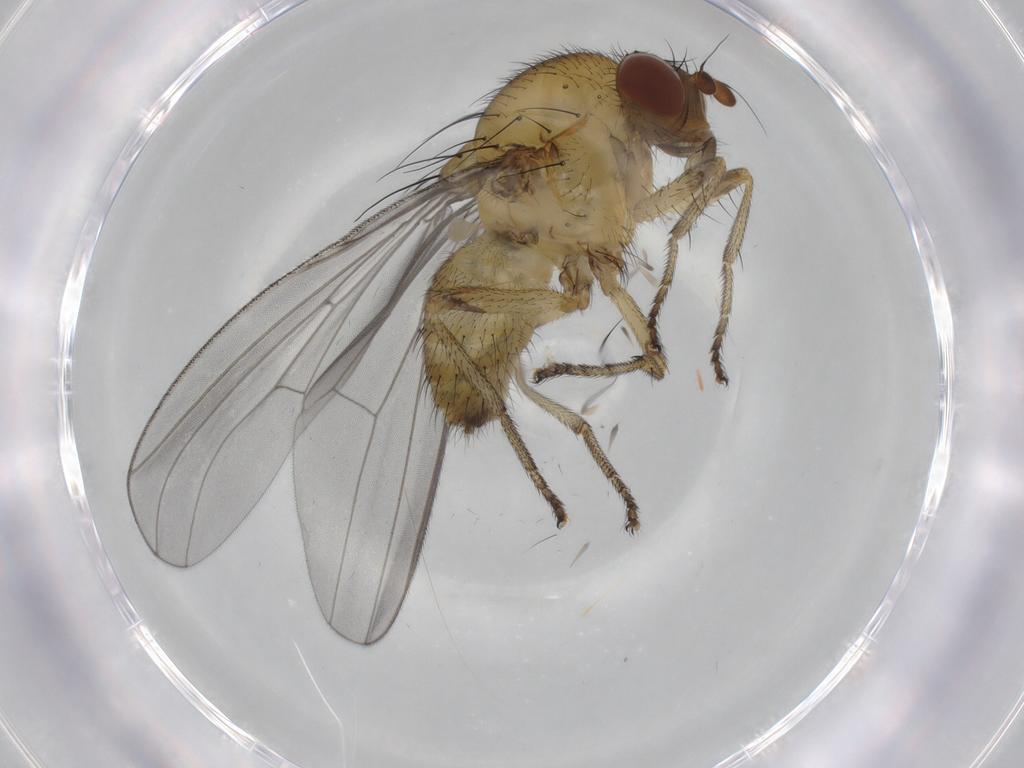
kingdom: Animalia
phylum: Arthropoda
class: Insecta
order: Diptera
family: Lauxaniidae
